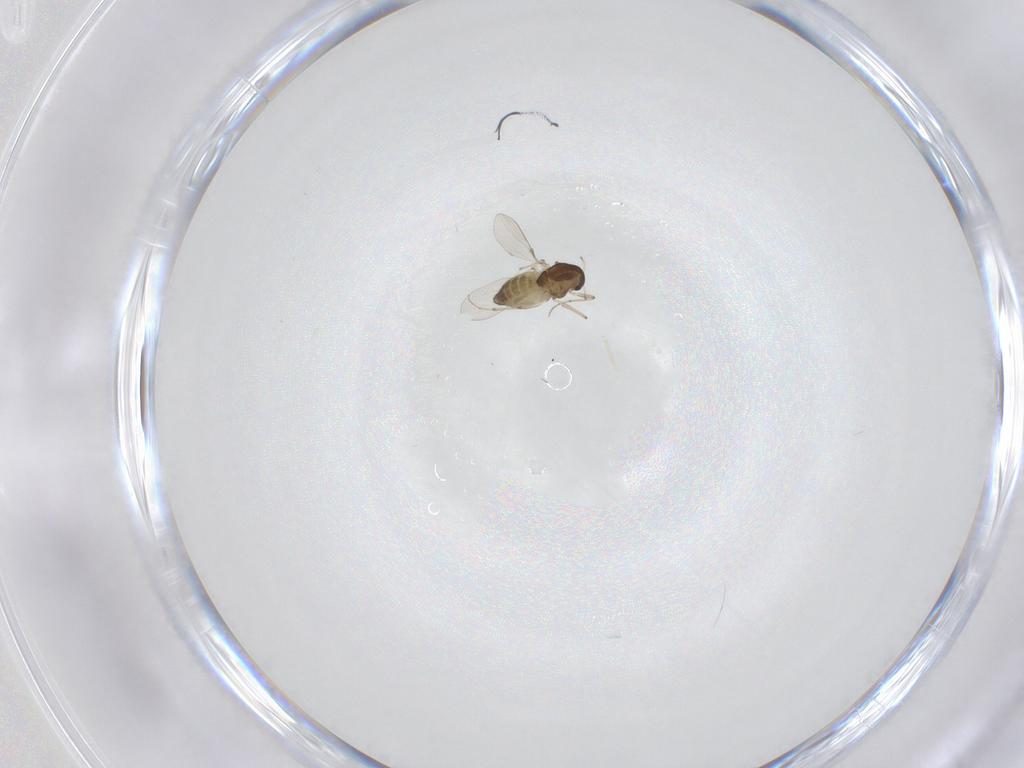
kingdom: Animalia
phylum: Arthropoda
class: Insecta
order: Diptera
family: Chironomidae
